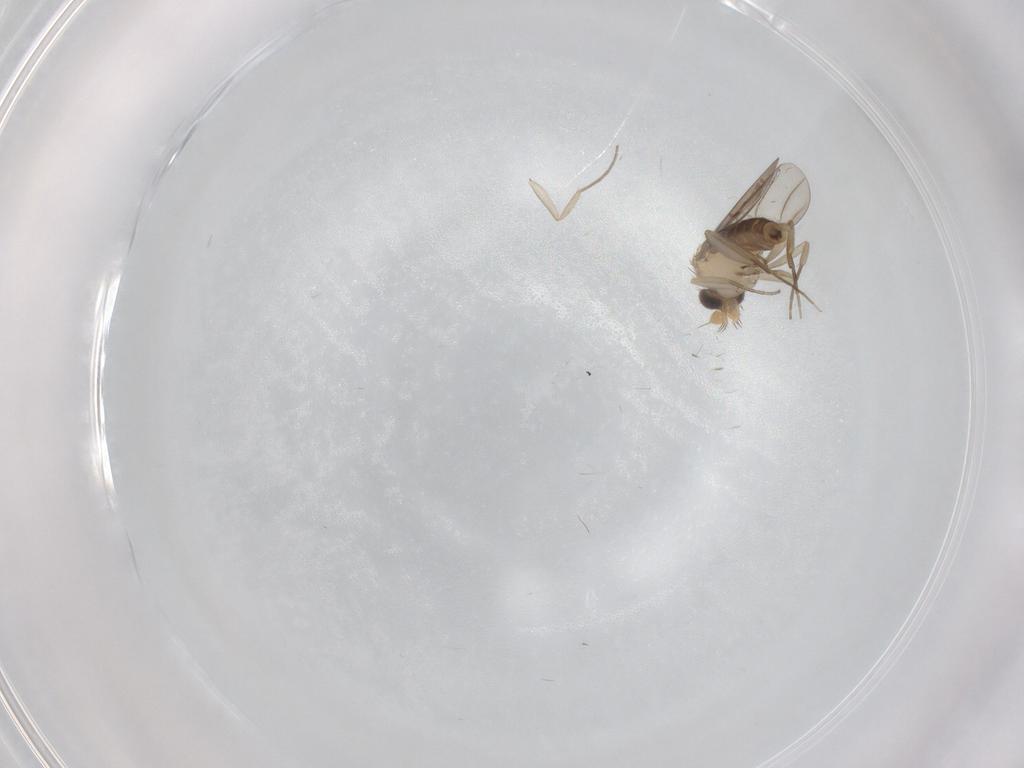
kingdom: Animalia
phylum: Arthropoda
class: Insecta
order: Diptera
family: Phoridae
